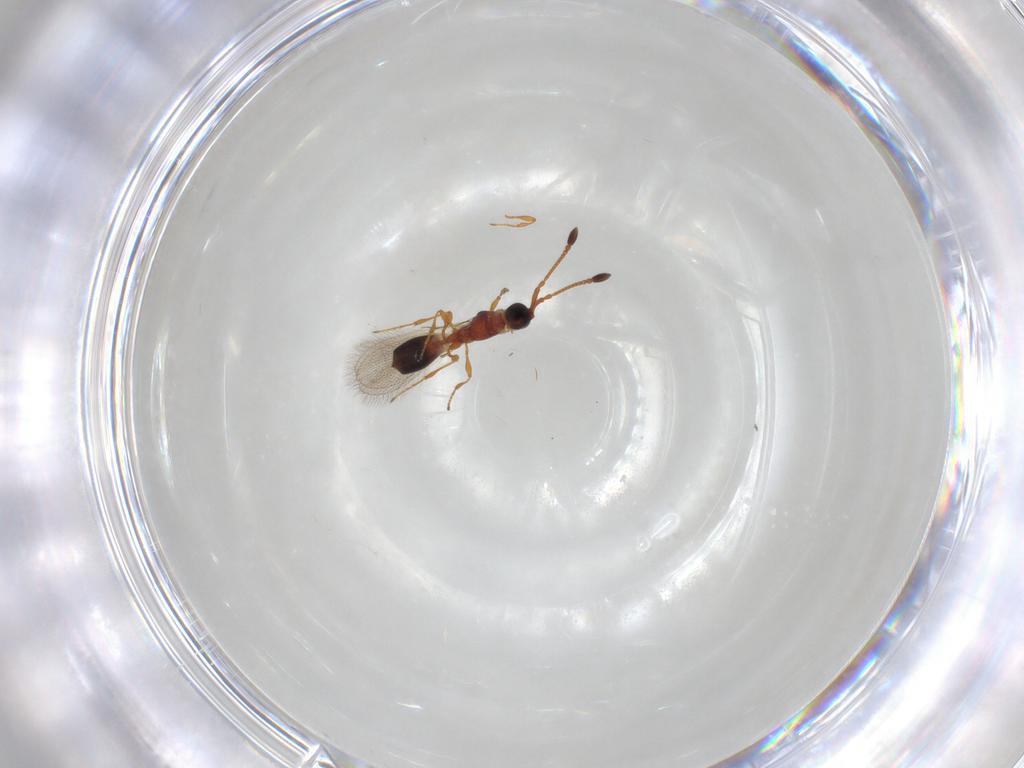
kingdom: Animalia
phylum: Arthropoda
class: Insecta
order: Hymenoptera
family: Diapriidae
